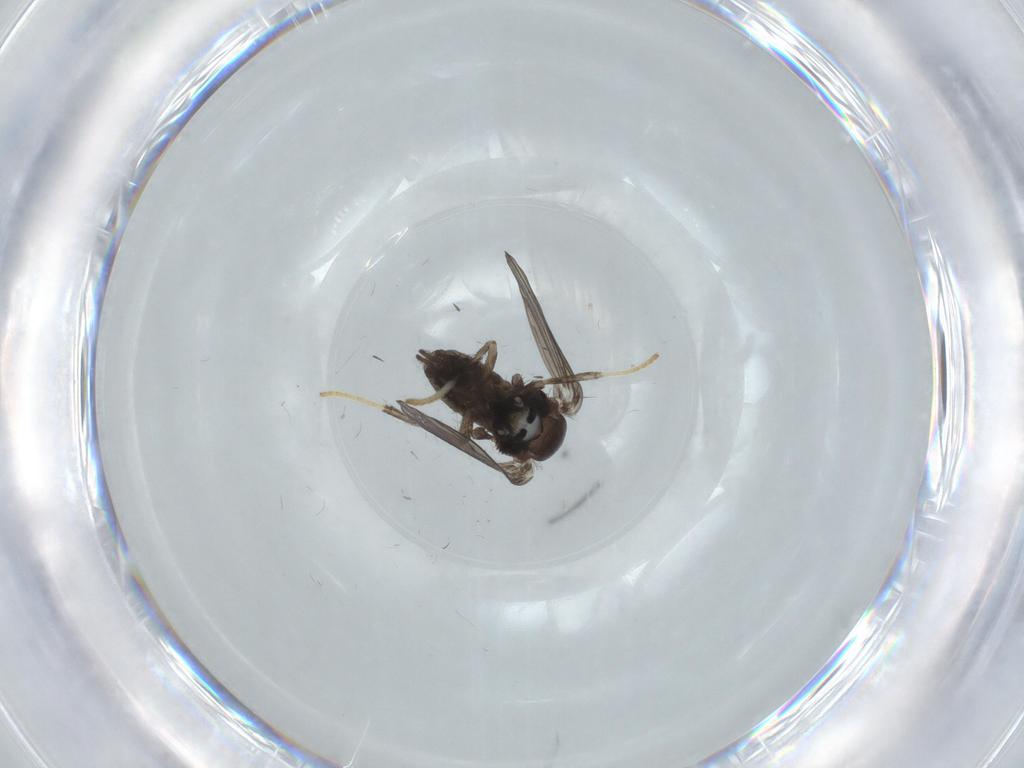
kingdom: Animalia
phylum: Arthropoda
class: Insecta
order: Diptera
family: Psychodidae
